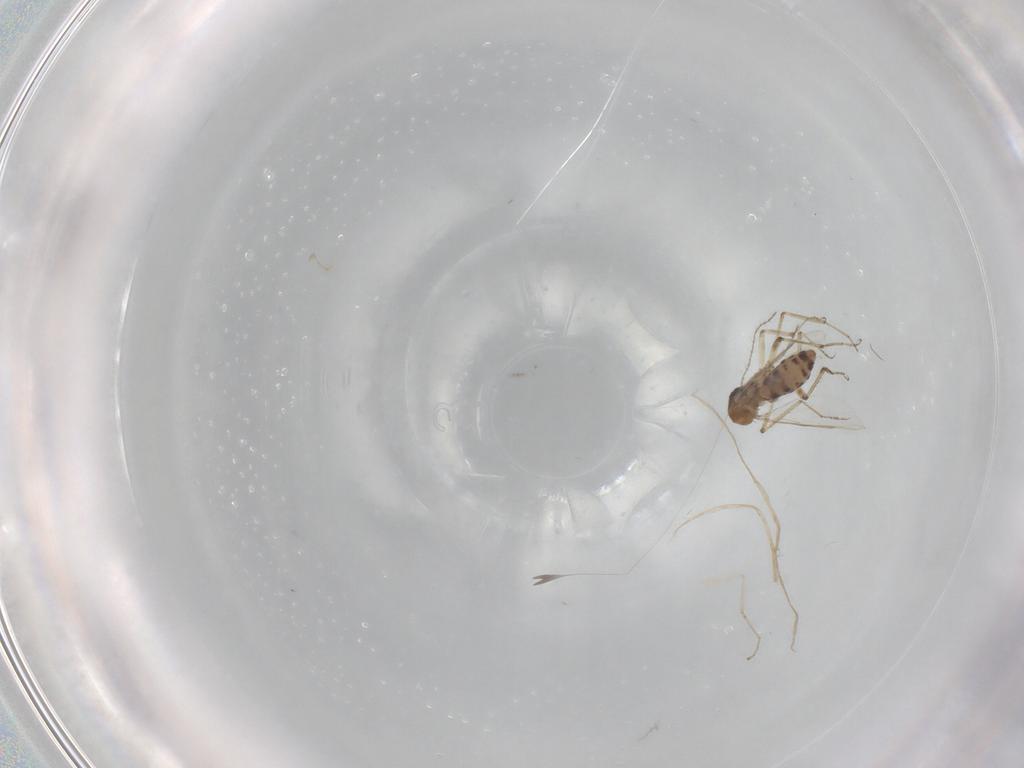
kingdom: Animalia
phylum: Arthropoda
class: Insecta
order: Diptera
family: Ceratopogonidae
